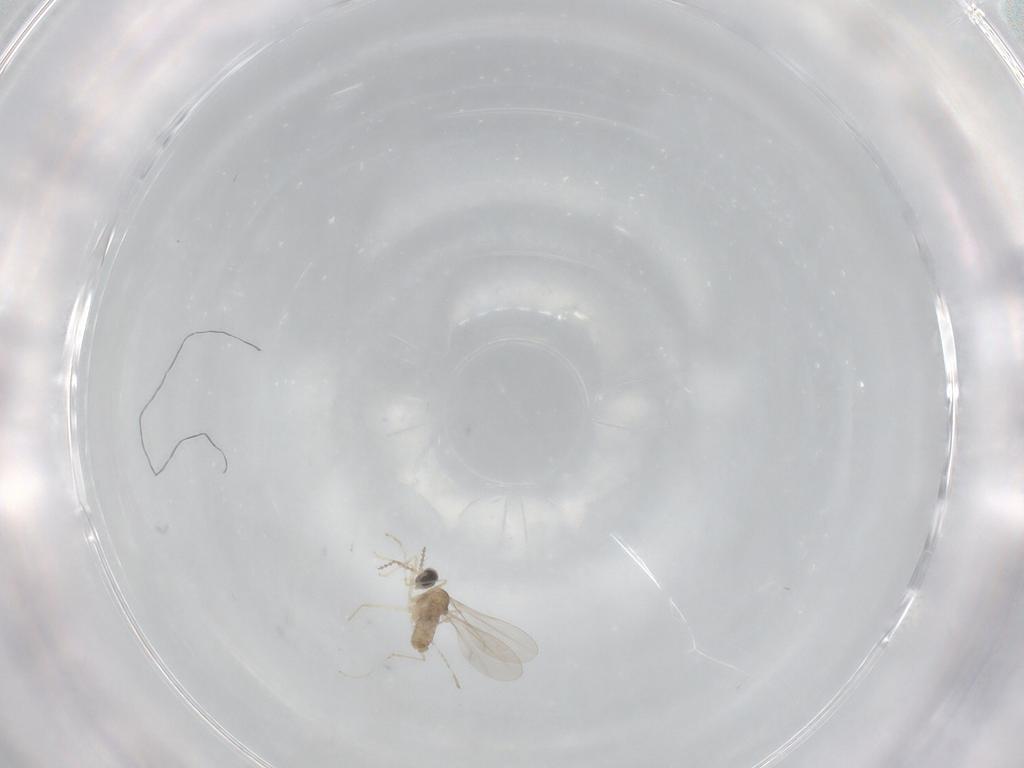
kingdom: Animalia
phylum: Arthropoda
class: Insecta
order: Diptera
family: Cecidomyiidae
